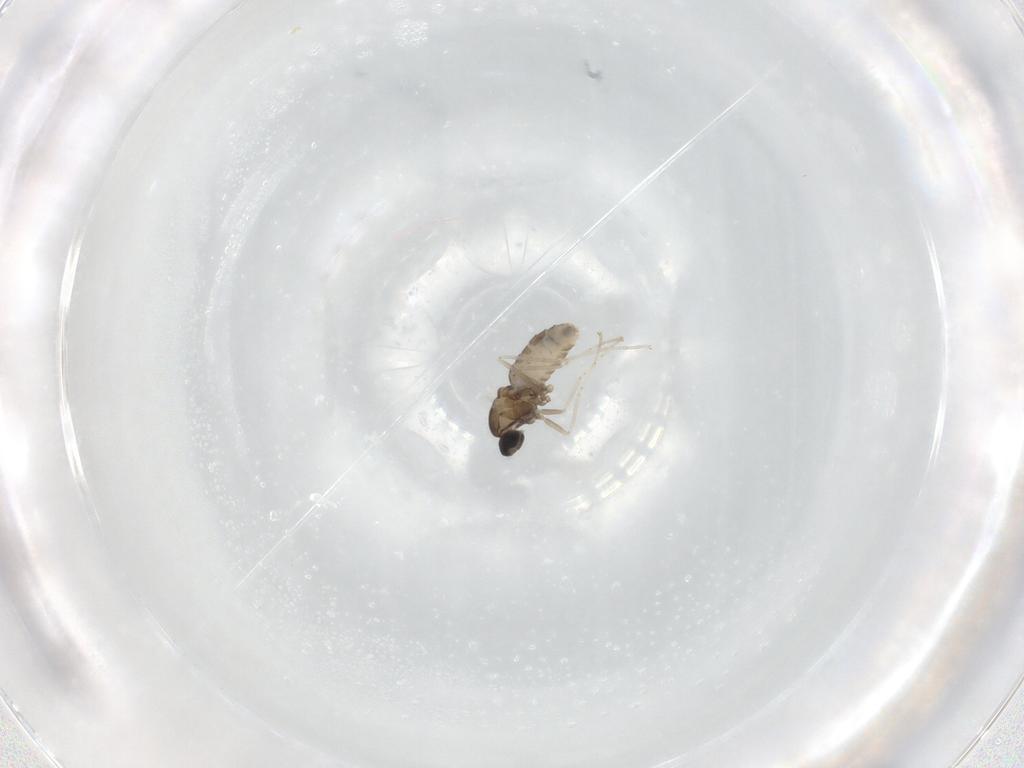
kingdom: Animalia
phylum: Arthropoda
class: Insecta
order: Diptera
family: Cecidomyiidae
